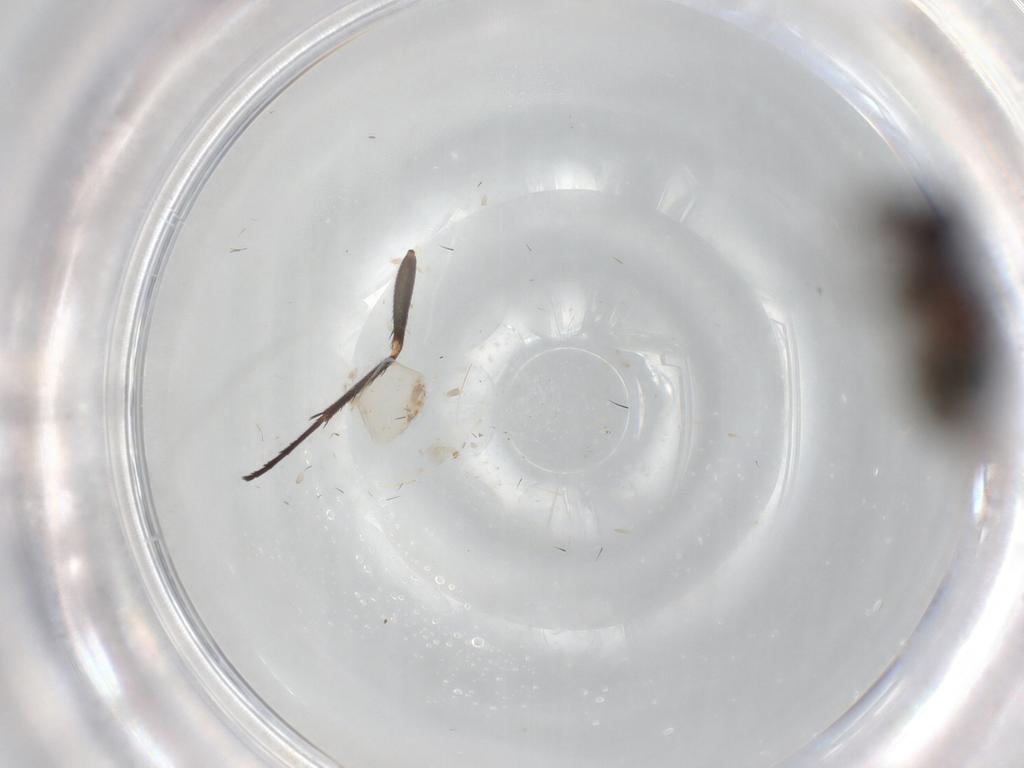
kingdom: Animalia
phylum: Arthropoda
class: Insecta
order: Diptera
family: Dolichopodidae
